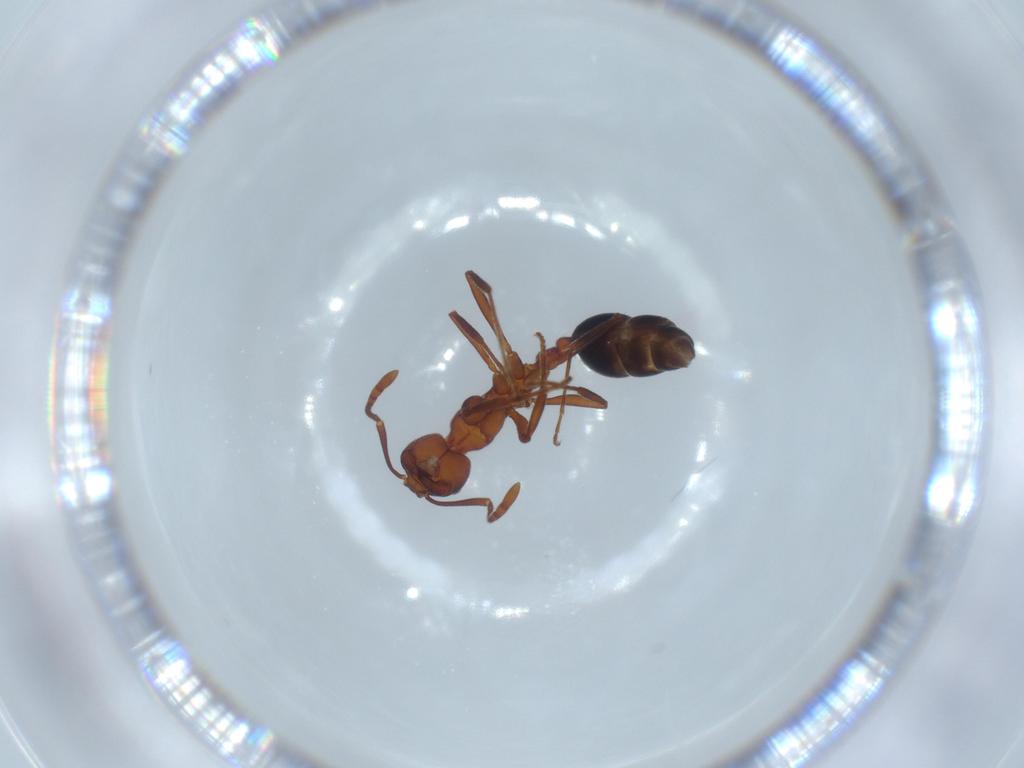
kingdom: Animalia
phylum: Arthropoda
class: Insecta
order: Hymenoptera
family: Formicidae
